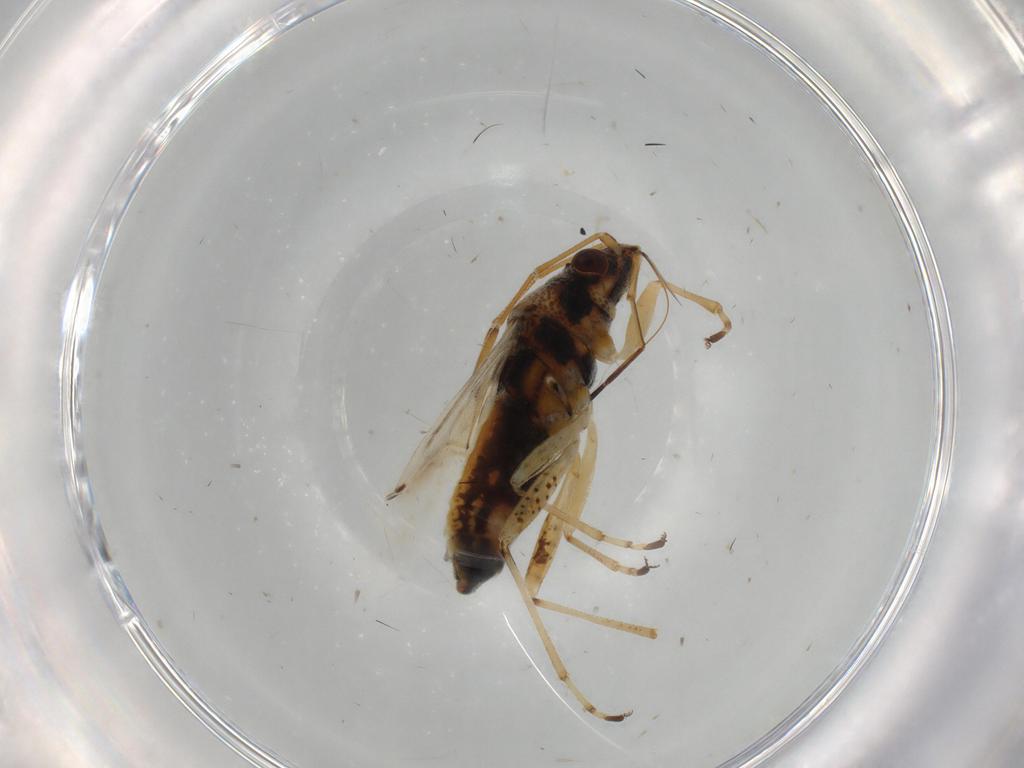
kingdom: Animalia
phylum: Arthropoda
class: Insecta
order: Hemiptera
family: Lygaeidae
